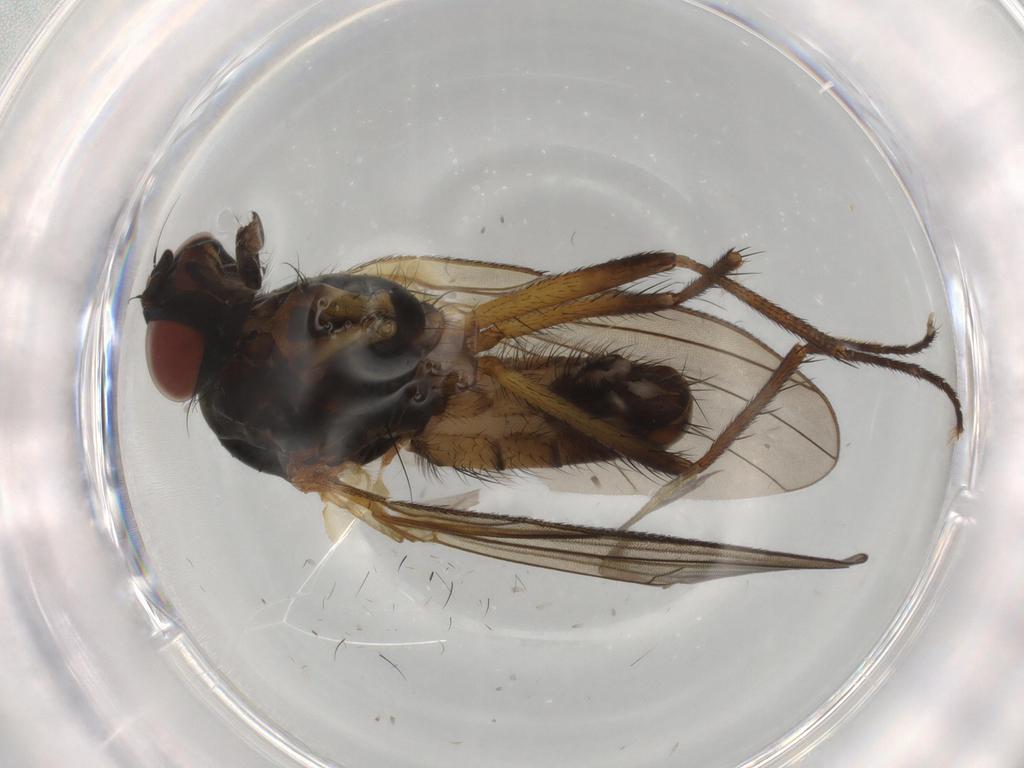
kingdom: Animalia
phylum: Arthropoda
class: Insecta
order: Diptera
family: Anthomyiidae
